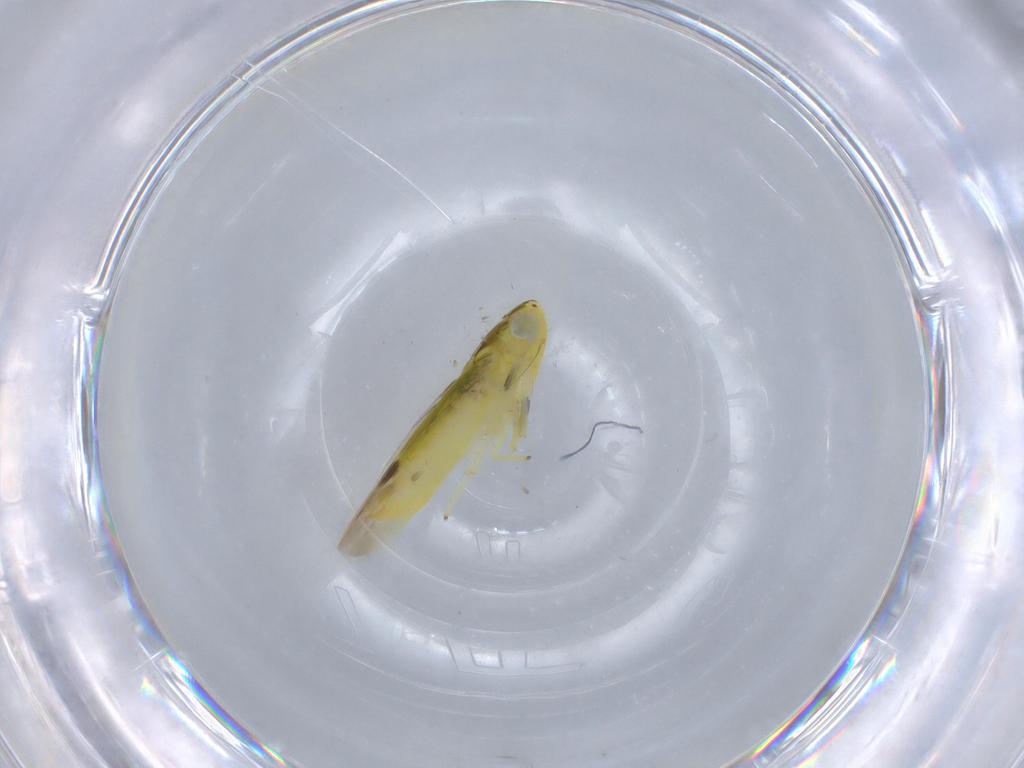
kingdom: Animalia
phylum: Arthropoda
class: Insecta
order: Hemiptera
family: Cicadellidae
